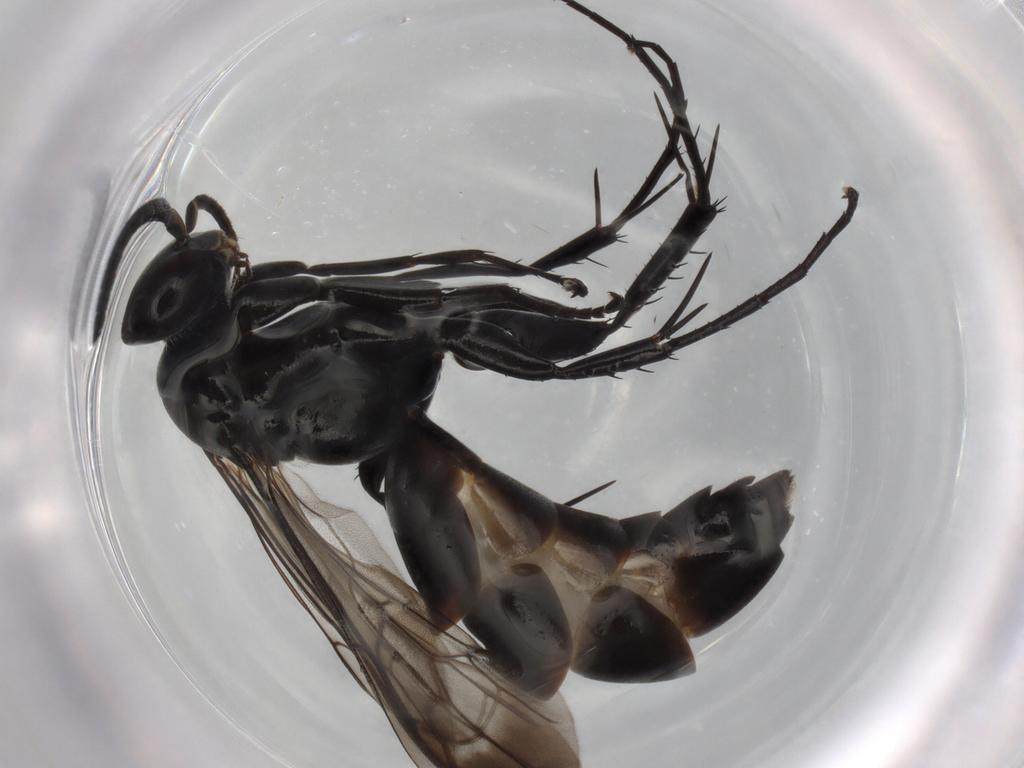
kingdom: Animalia
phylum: Arthropoda
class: Insecta
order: Hymenoptera
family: Pompilidae
